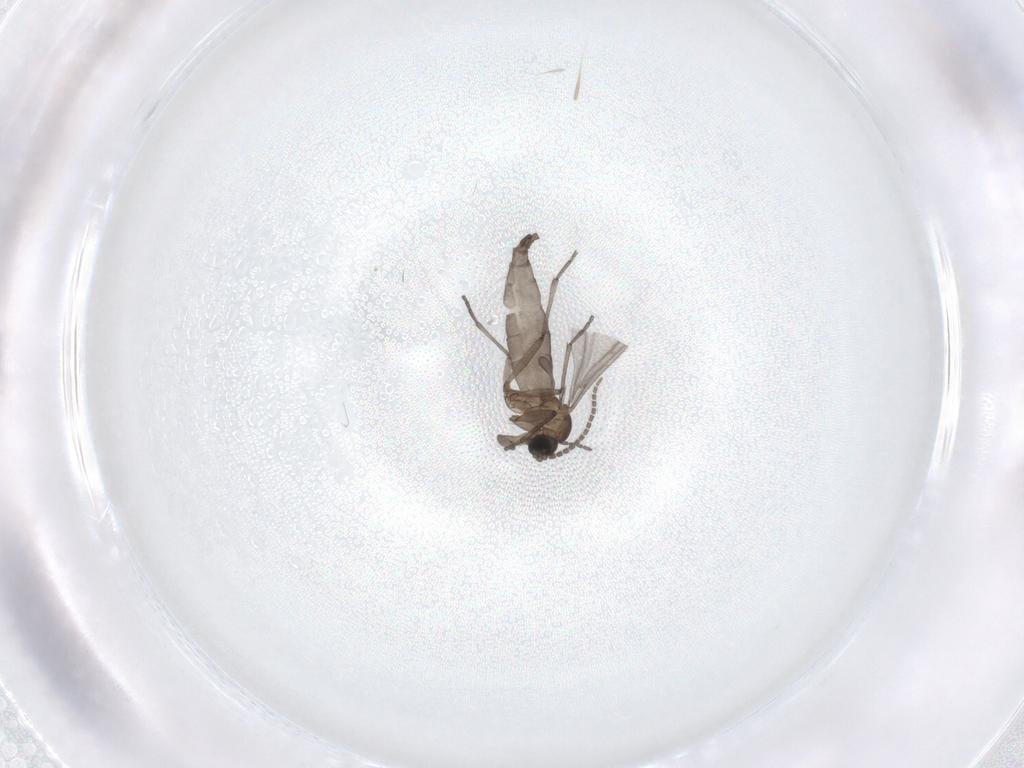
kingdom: Animalia
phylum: Arthropoda
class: Insecta
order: Diptera
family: Sciaridae
